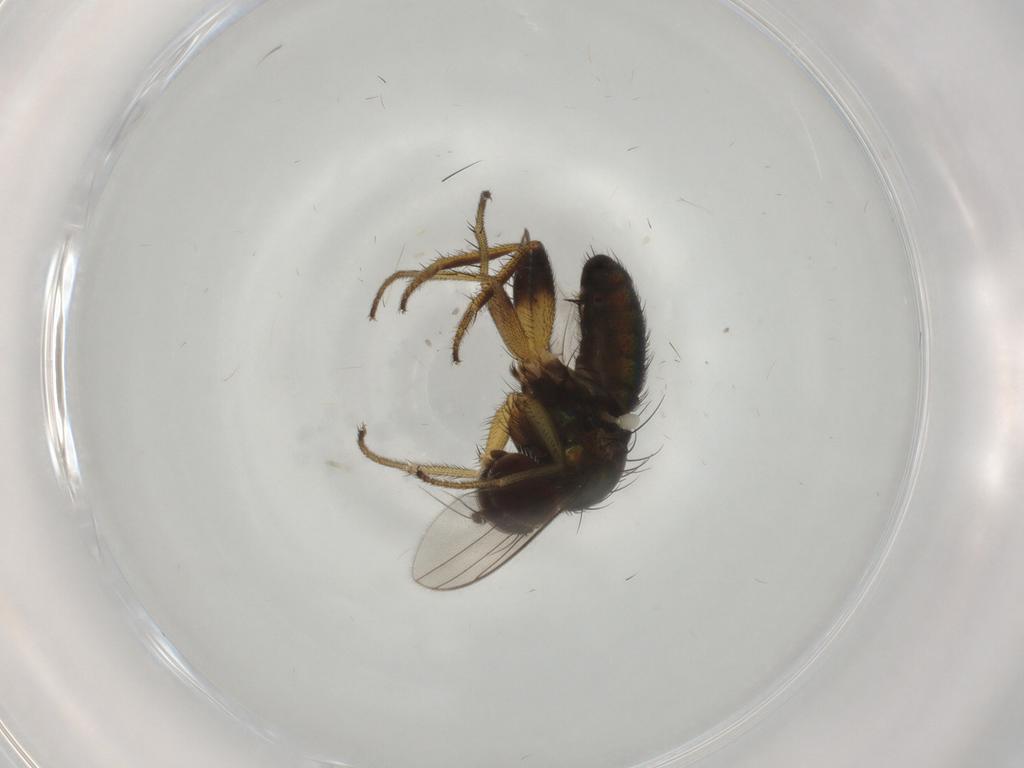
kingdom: Animalia
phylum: Arthropoda
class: Insecta
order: Diptera
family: Dolichopodidae
